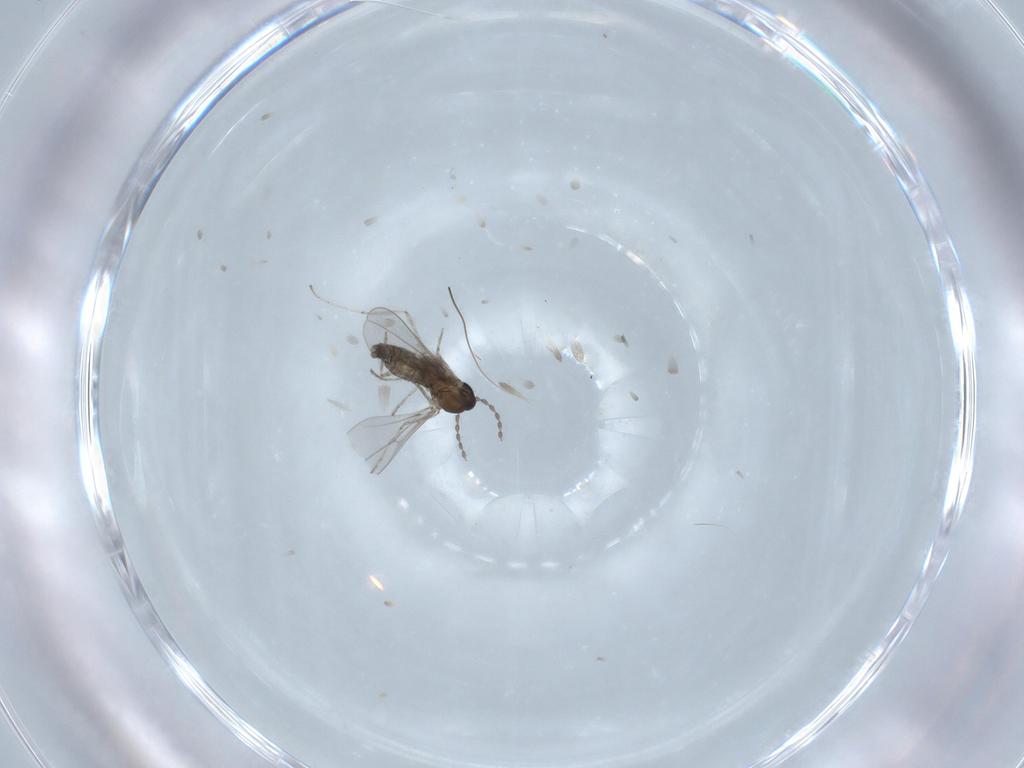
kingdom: Animalia
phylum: Arthropoda
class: Insecta
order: Diptera
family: Cecidomyiidae
